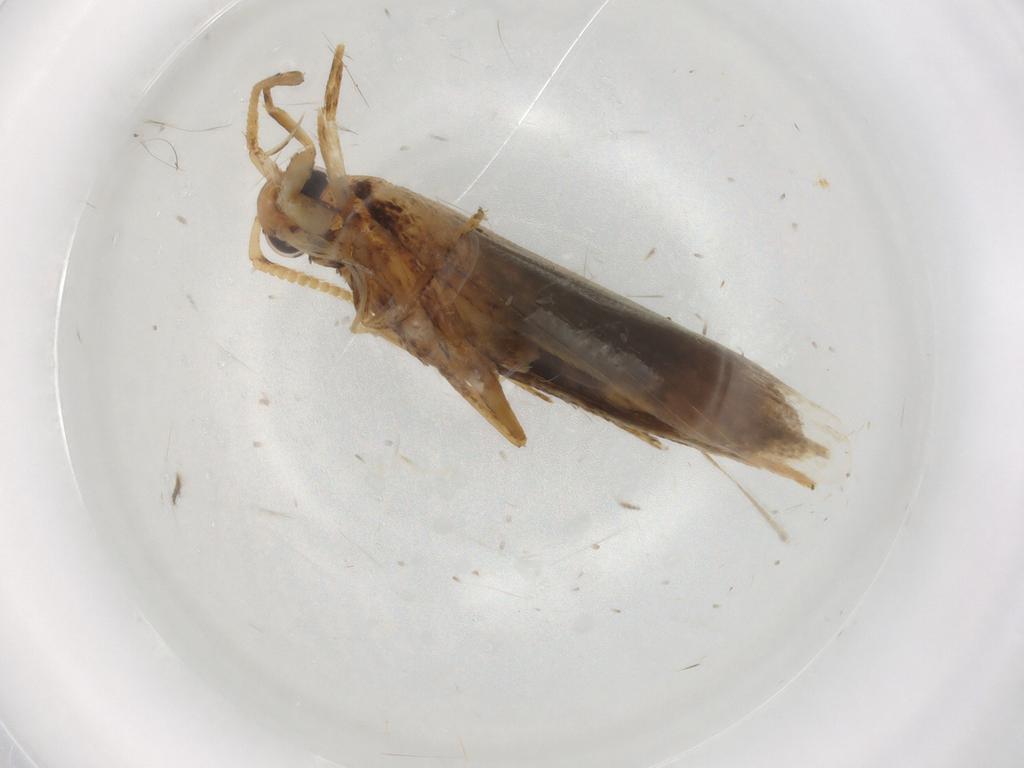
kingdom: Animalia
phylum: Arthropoda
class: Insecta
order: Lepidoptera
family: Lecithoceridae
